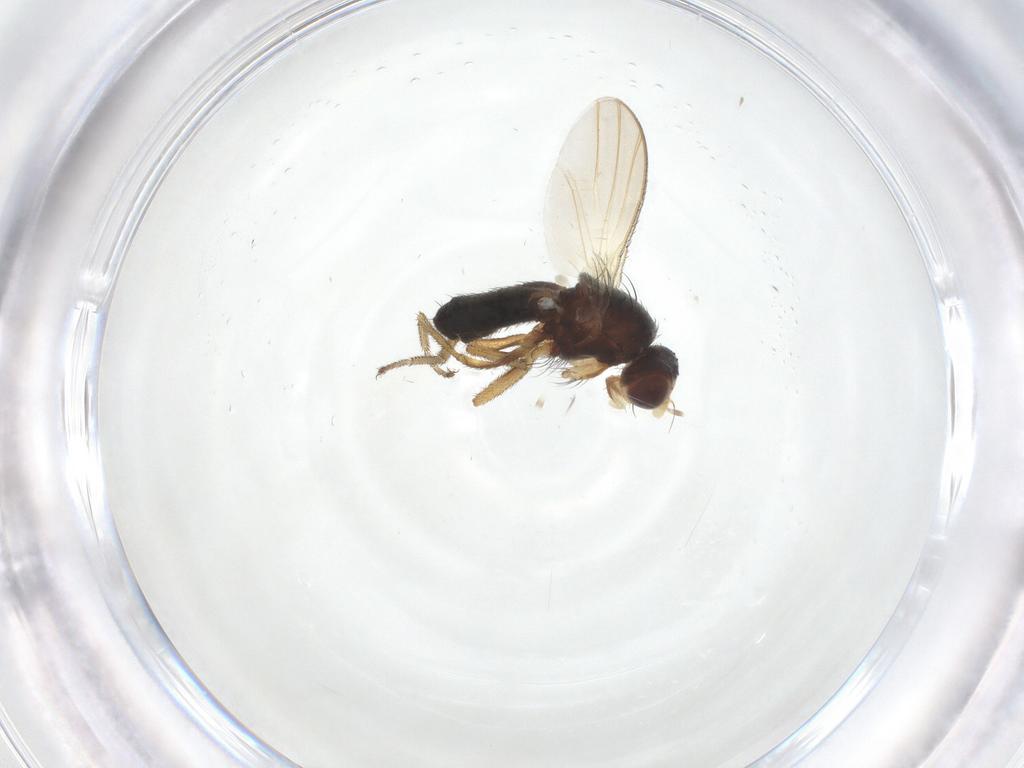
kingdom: Animalia
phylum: Arthropoda
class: Insecta
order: Diptera
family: Heleomyzidae
